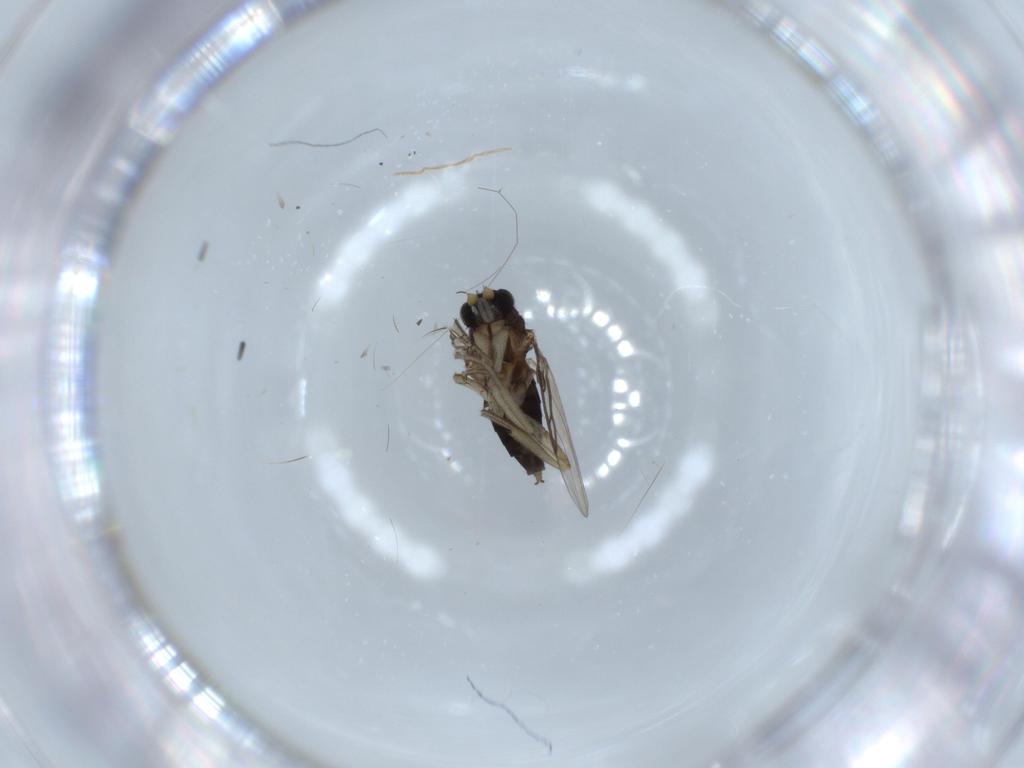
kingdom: Animalia
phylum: Arthropoda
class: Insecta
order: Diptera
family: Phoridae
